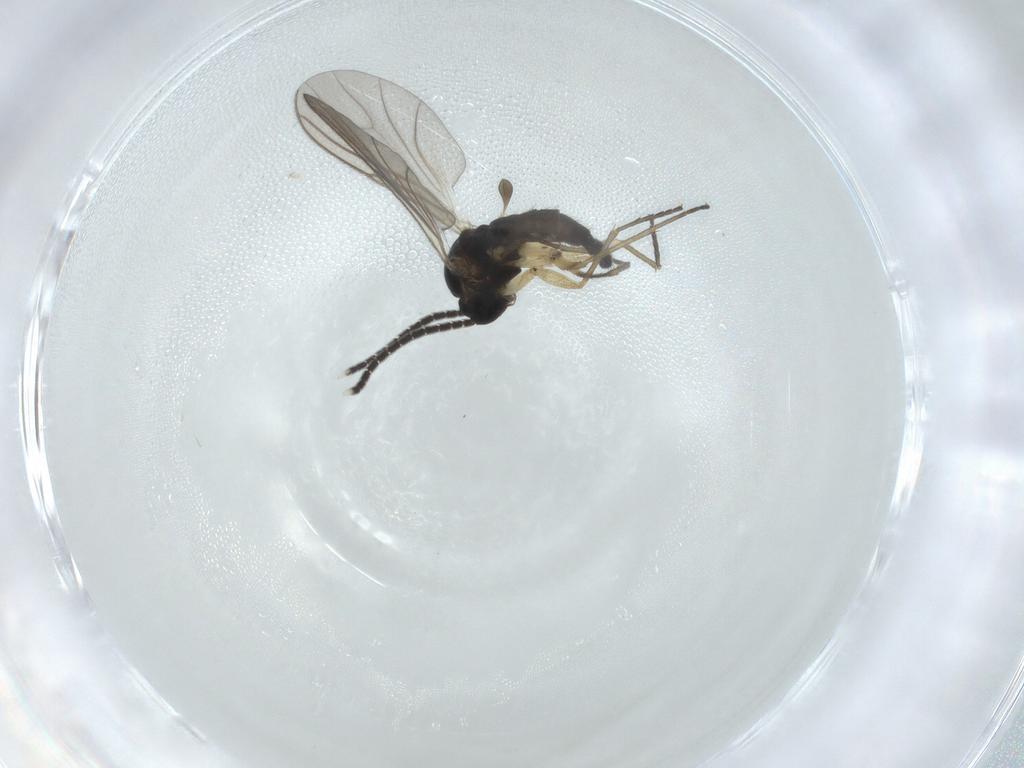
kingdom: Animalia
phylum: Arthropoda
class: Insecta
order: Diptera
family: Sciaridae
